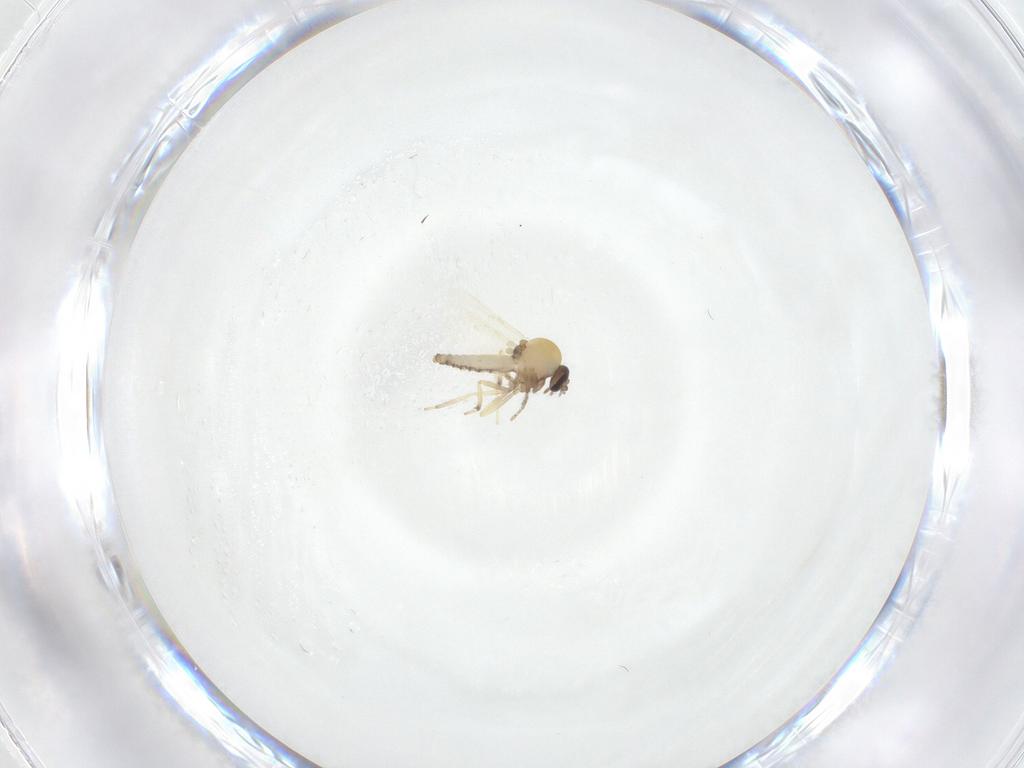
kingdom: Animalia
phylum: Arthropoda
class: Insecta
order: Diptera
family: Ceratopogonidae
